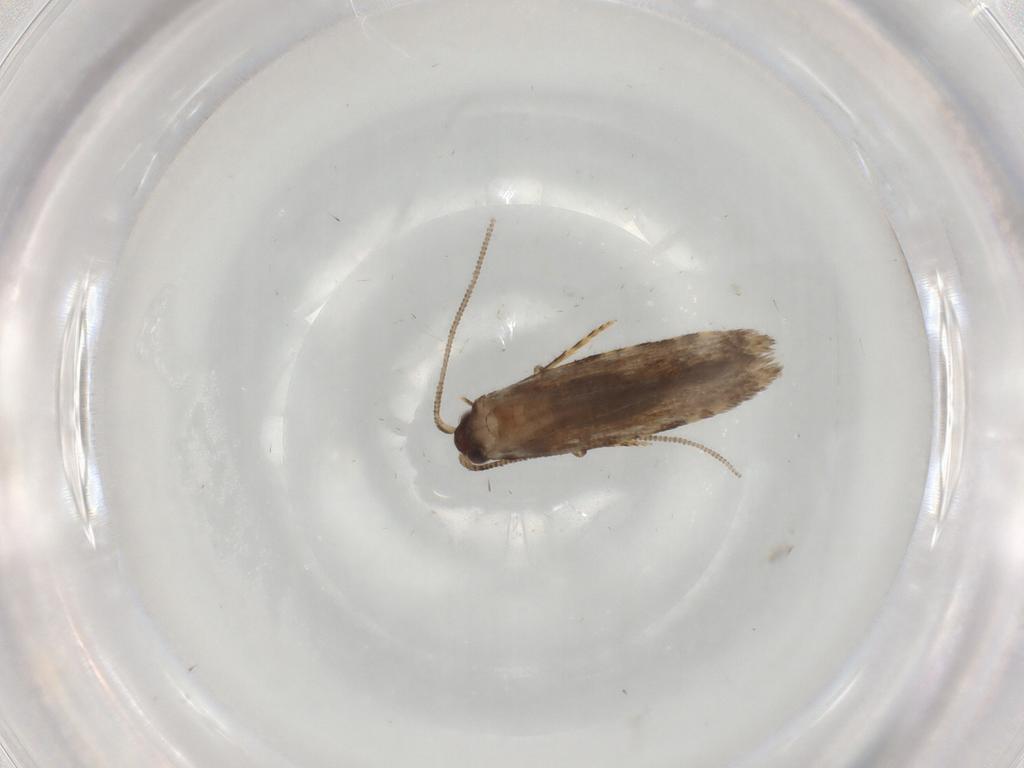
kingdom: Animalia
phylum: Arthropoda
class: Insecta
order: Lepidoptera
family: Tineidae
